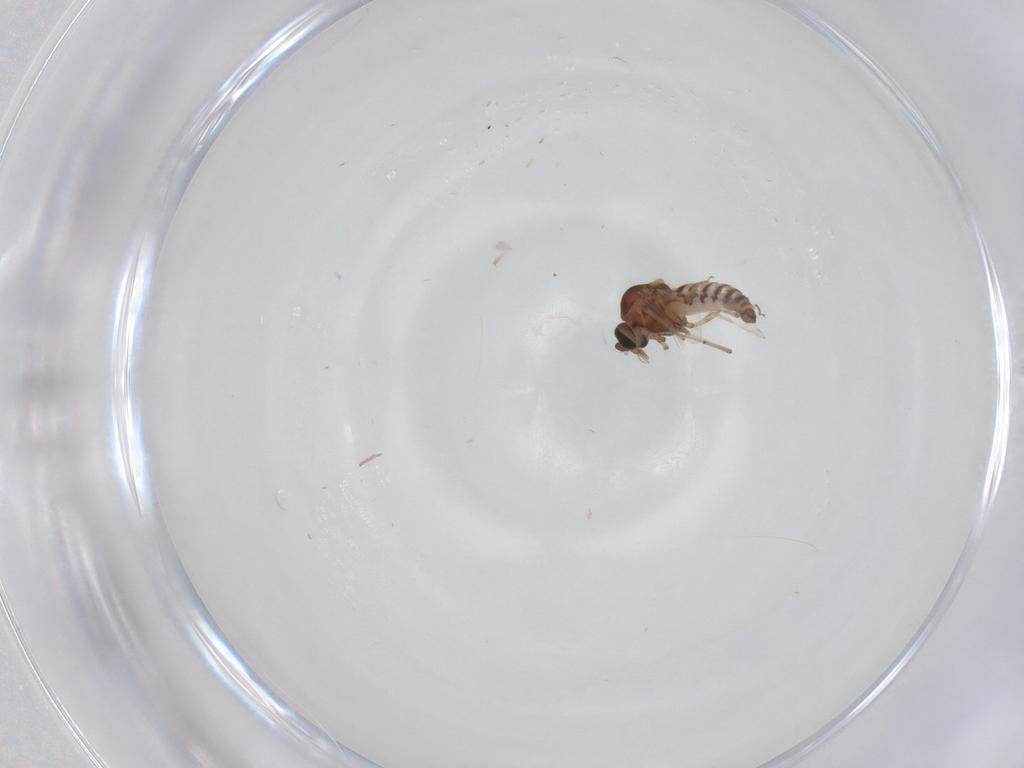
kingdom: Animalia
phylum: Arthropoda
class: Insecta
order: Diptera
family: Ceratopogonidae
